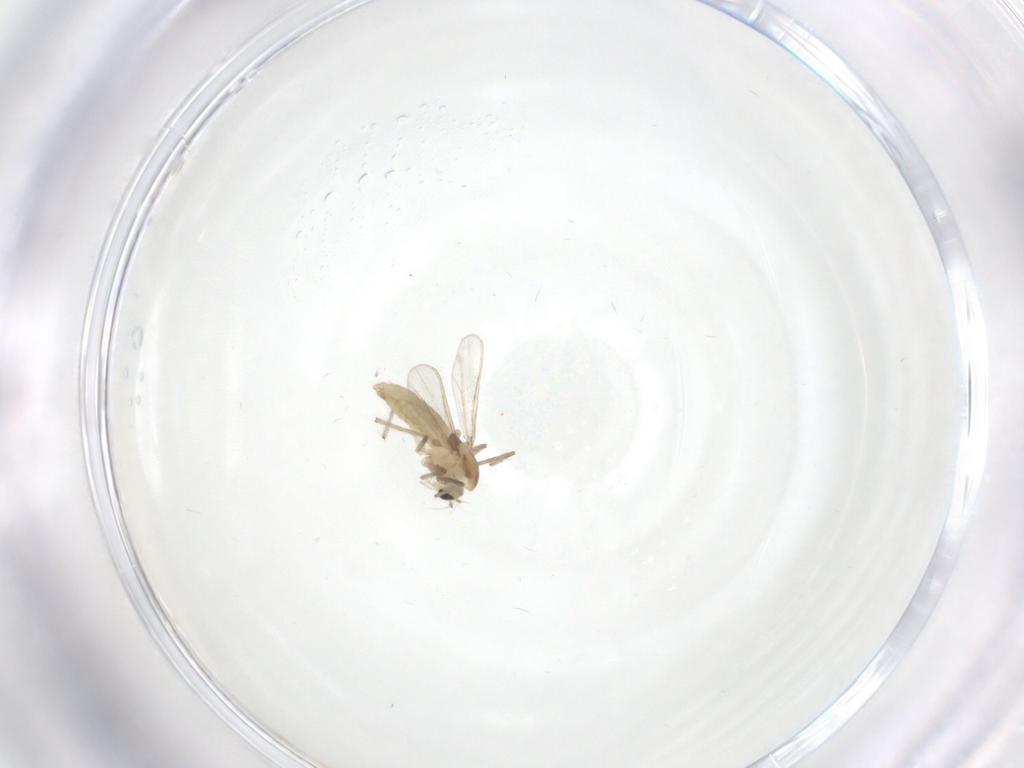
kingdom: Animalia
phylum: Arthropoda
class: Insecta
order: Diptera
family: Chironomidae
